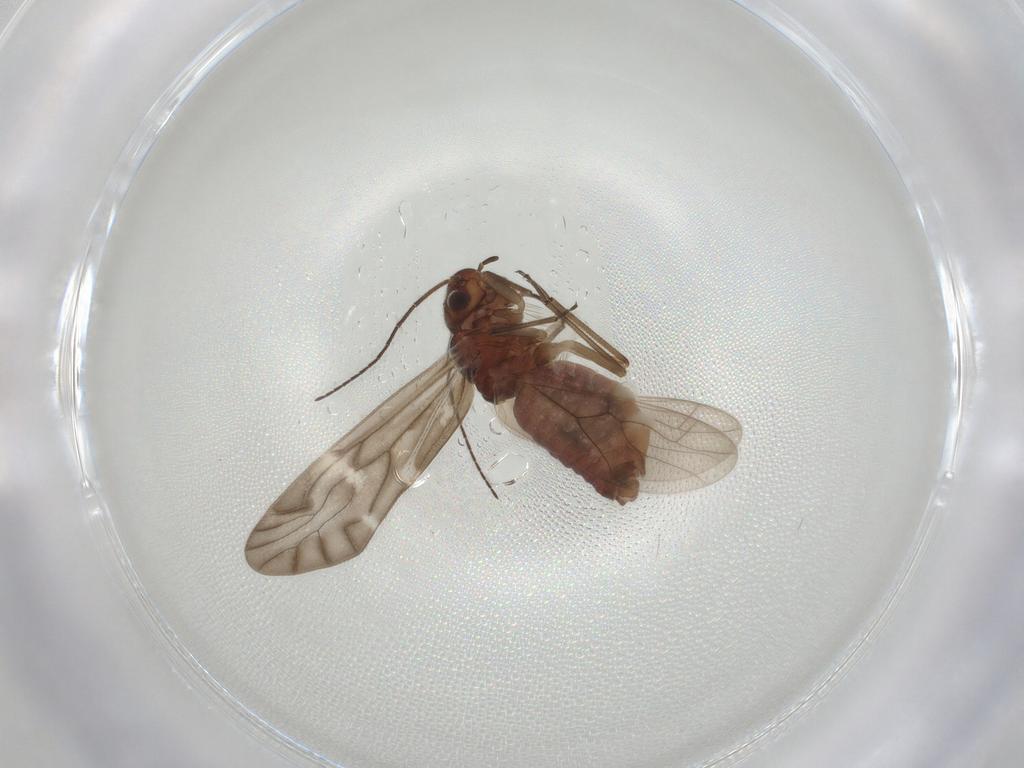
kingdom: Animalia
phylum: Arthropoda
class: Insecta
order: Psocodea
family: Caeciliusidae
